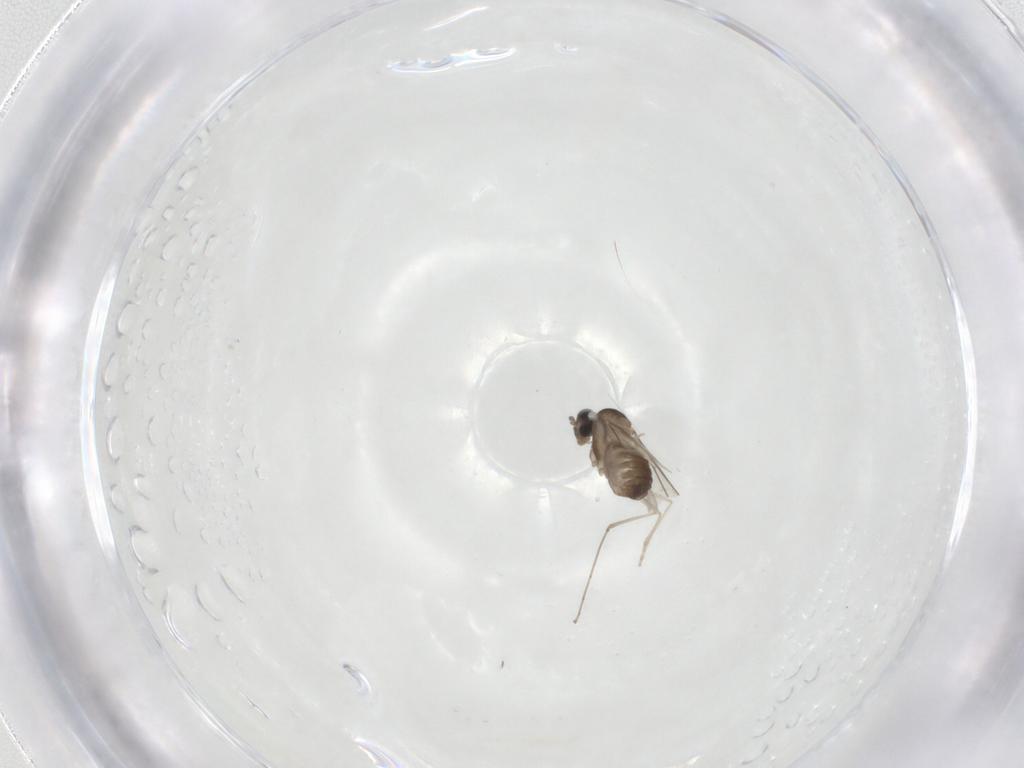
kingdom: Animalia
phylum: Arthropoda
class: Insecta
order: Diptera
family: Cecidomyiidae
